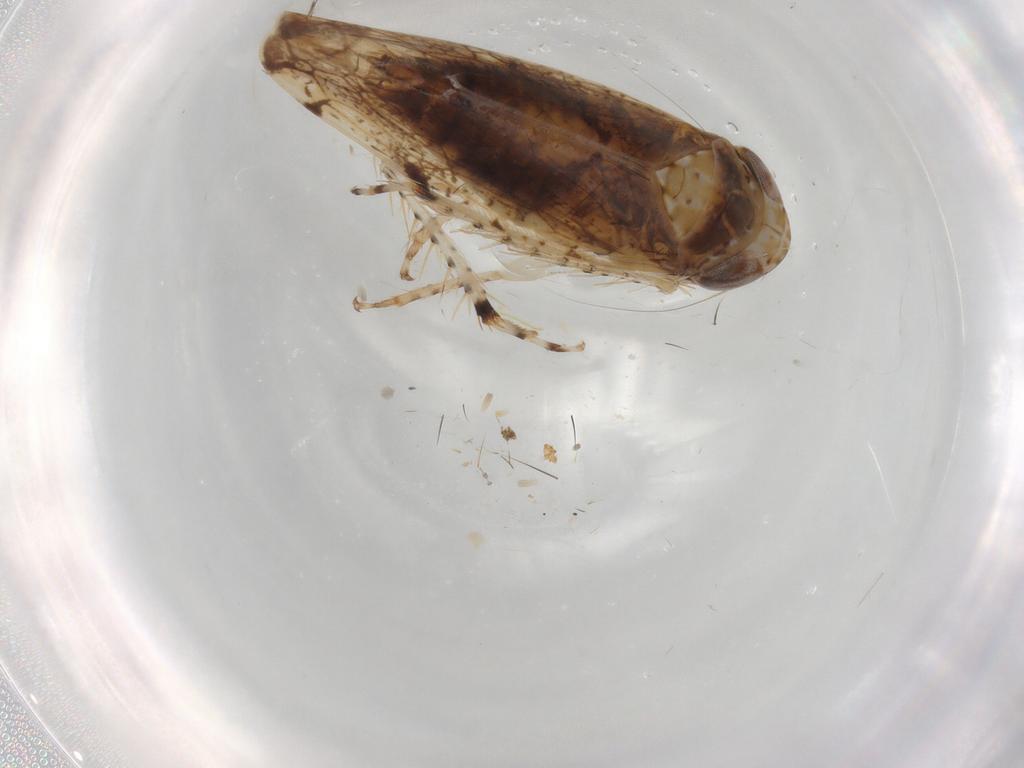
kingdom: Animalia
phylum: Arthropoda
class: Insecta
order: Hemiptera
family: Cicadellidae
